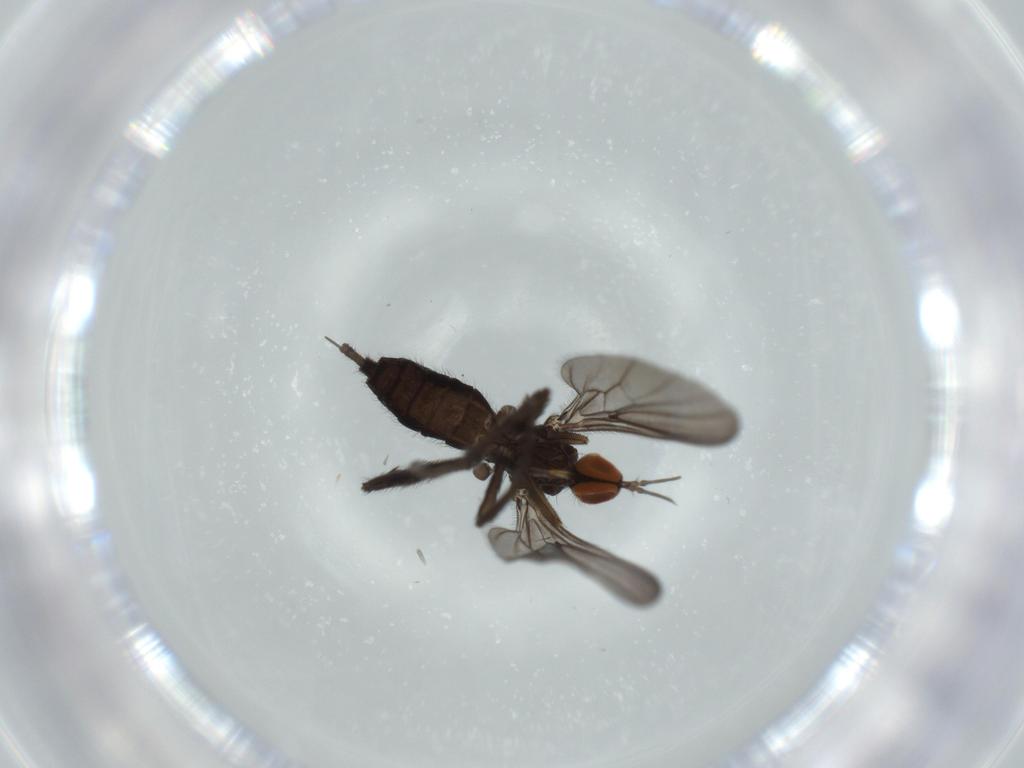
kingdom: Animalia
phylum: Arthropoda
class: Insecta
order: Diptera
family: Empididae
